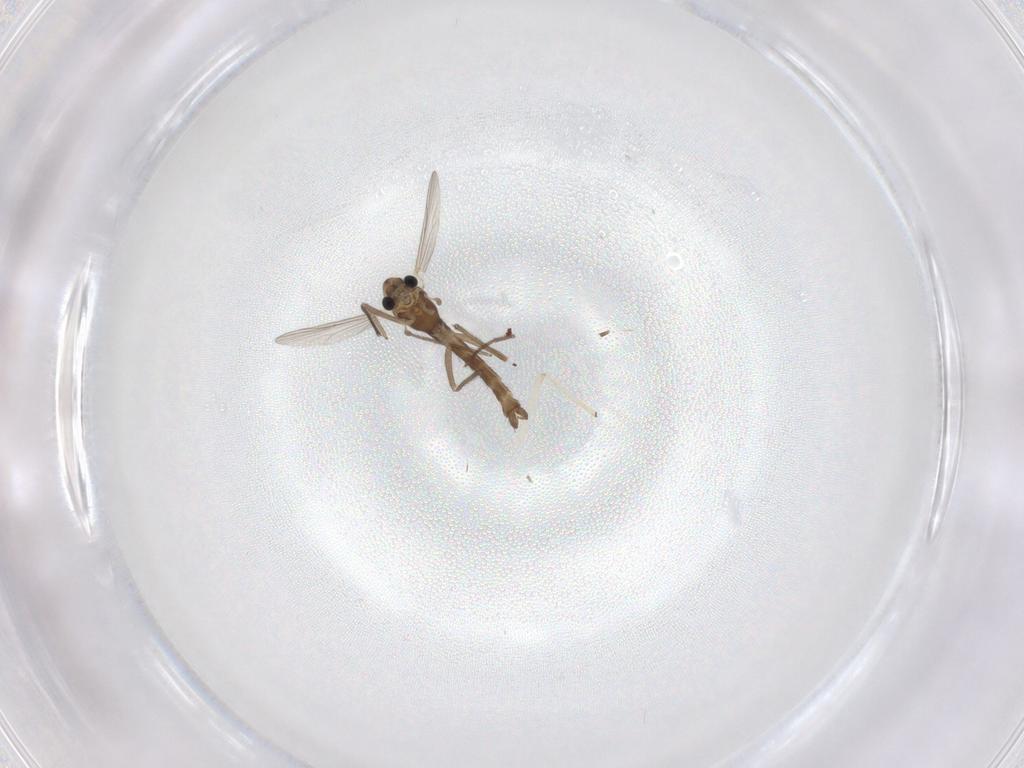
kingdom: Animalia
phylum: Arthropoda
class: Insecta
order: Diptera
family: Chironomidae
